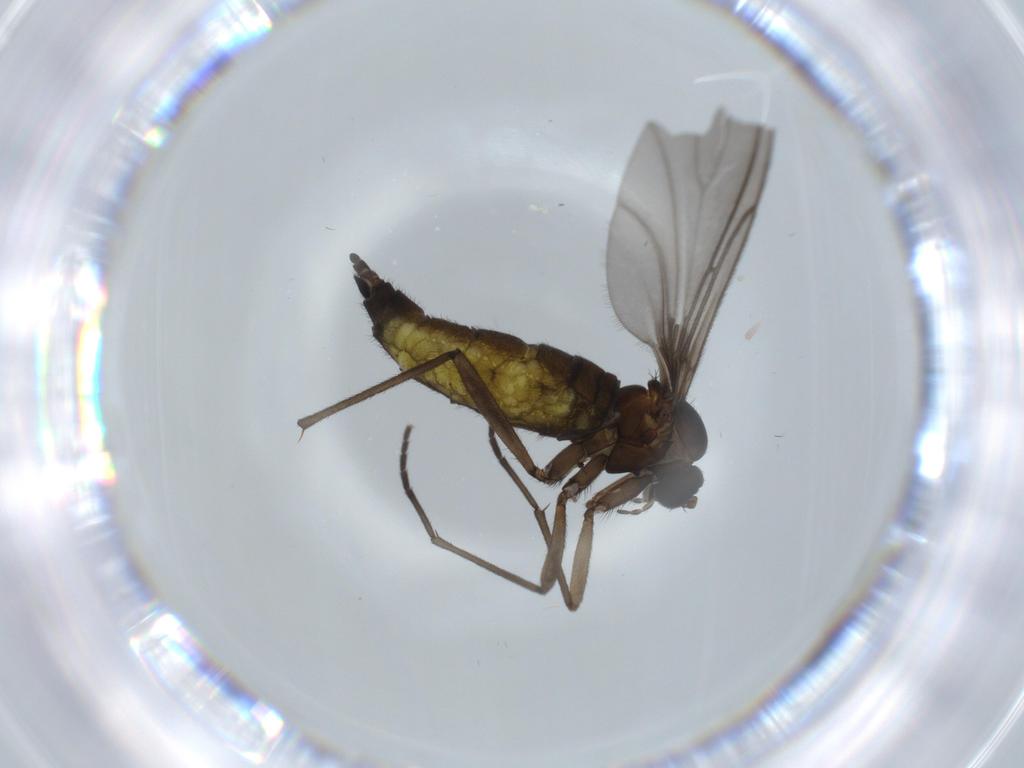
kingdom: Animalia
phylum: Arthropoda
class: Insecta
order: Diptera
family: Sciaridae
